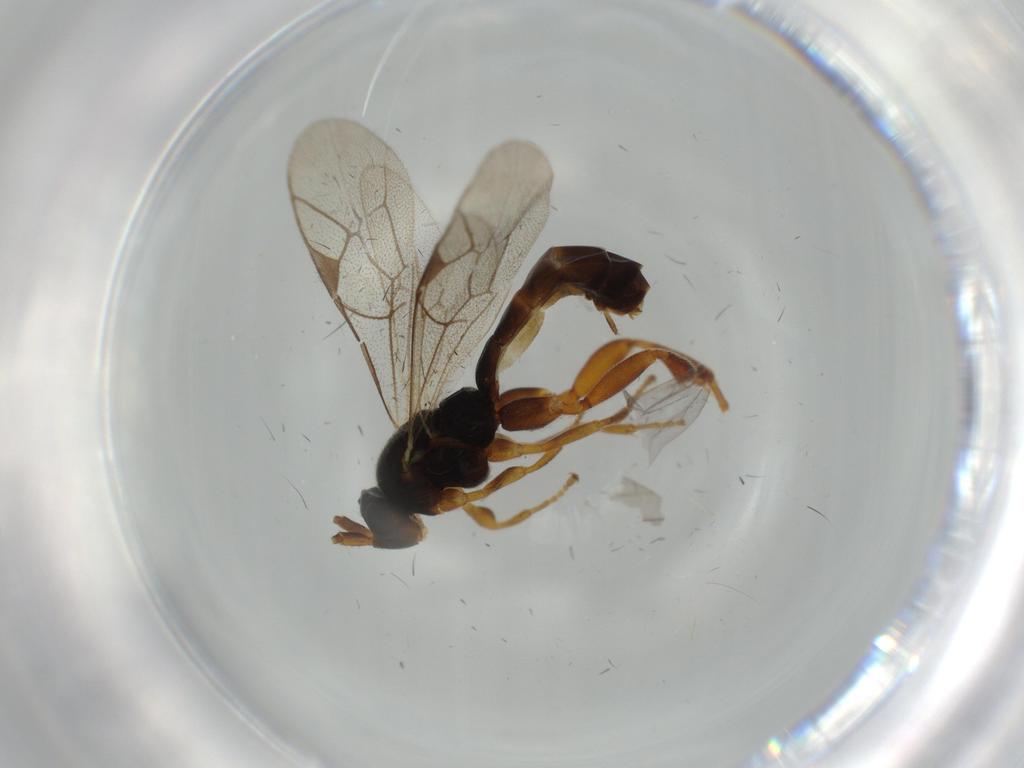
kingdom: Animalia
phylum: Arthropoda
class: Insecta
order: Hymenoptera
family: Ichneumonidae
